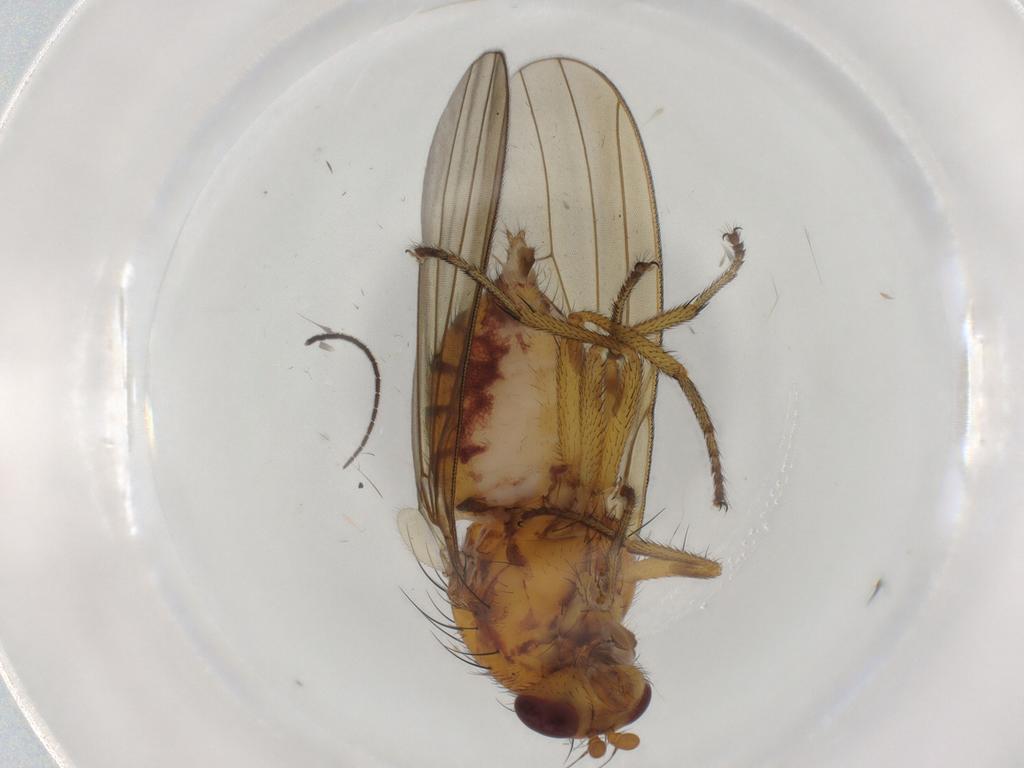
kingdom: Animalia
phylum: Arthropoda
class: Insecta
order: Diptera
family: Lauxaniidae
